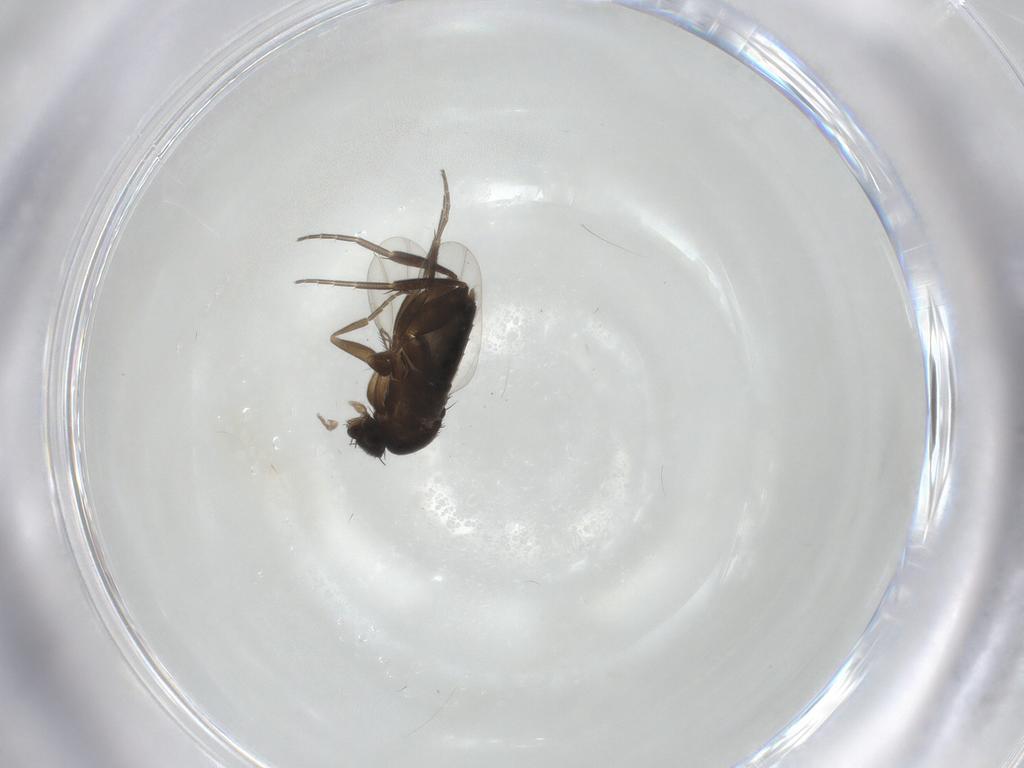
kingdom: Animalia
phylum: Arthropoda
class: Insecta
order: Diptera
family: Phoridae
